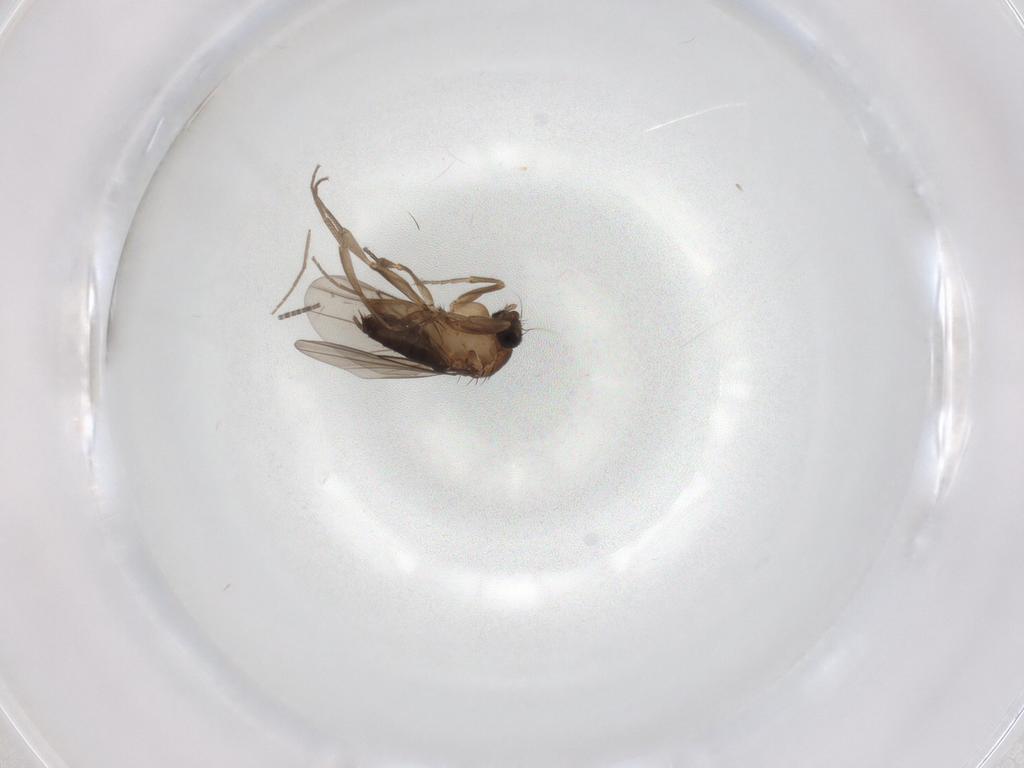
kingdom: Animalia
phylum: Arthropoda
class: Insecta
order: Diptera
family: Phoridae
